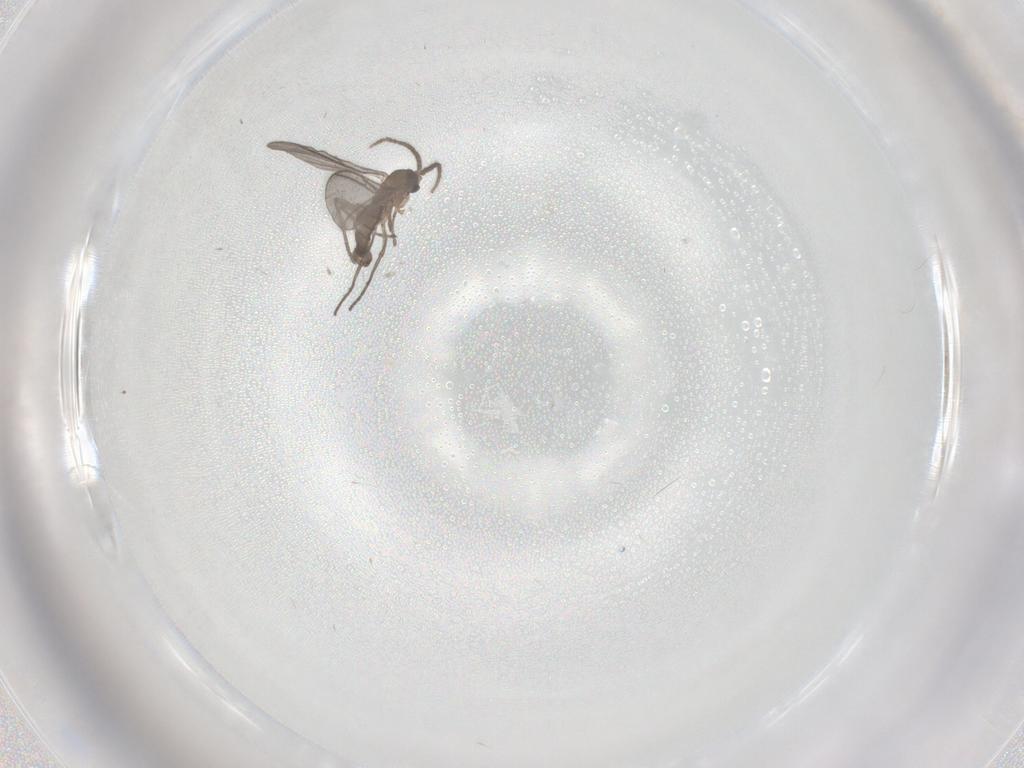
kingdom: Animalia
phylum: Arthropoda
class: Insecta
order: Diptera
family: Sciaridae
